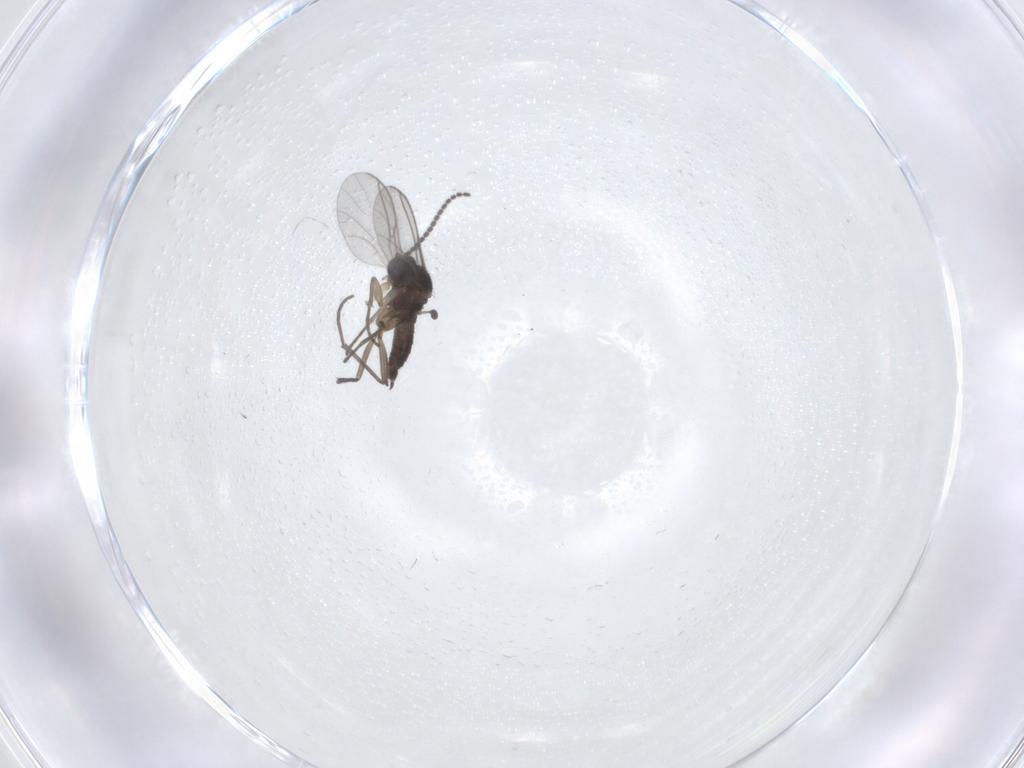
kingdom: Animalia
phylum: Arthropoda
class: Insecta
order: Diptera
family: Sciaridae
